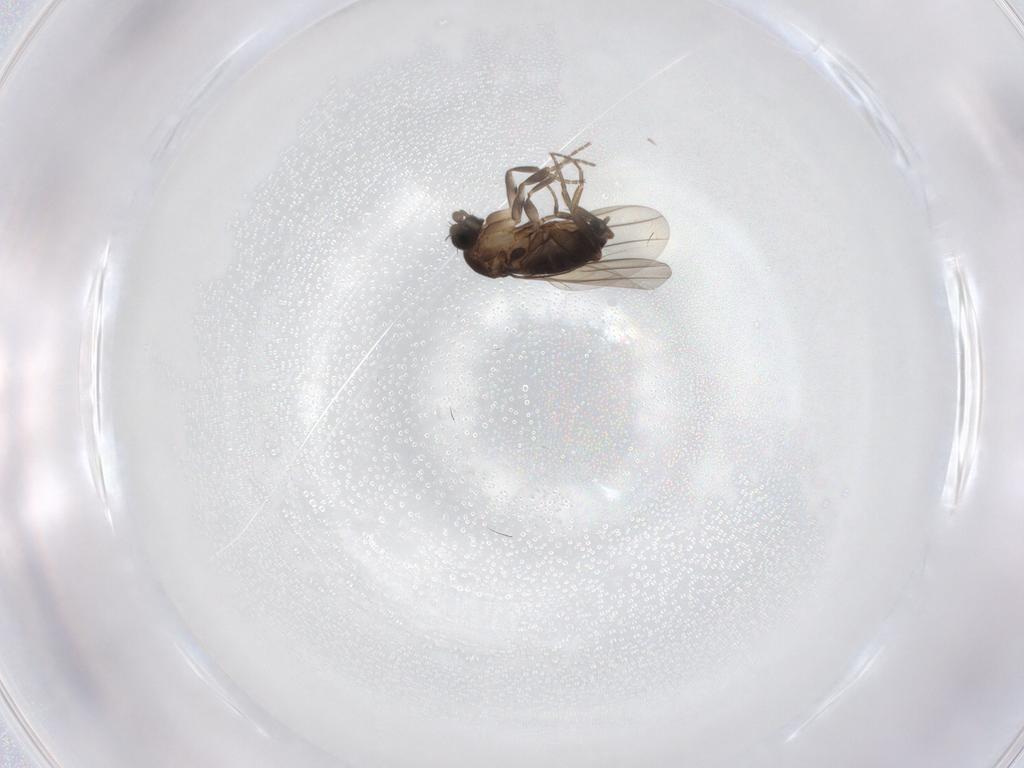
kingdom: Animalia
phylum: Arthropoda
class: Insecta
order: Diptera
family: Phoridae
